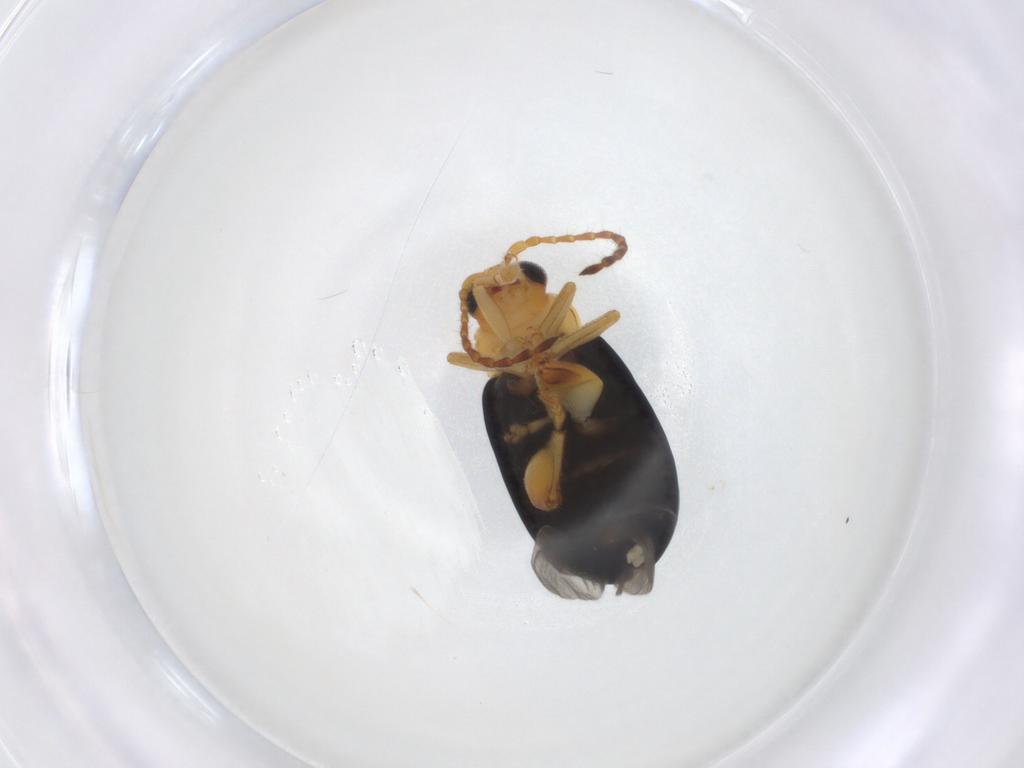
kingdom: Animalia
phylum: Arthropoda
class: Insecta
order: Coleoptera
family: Chrysomelidae
